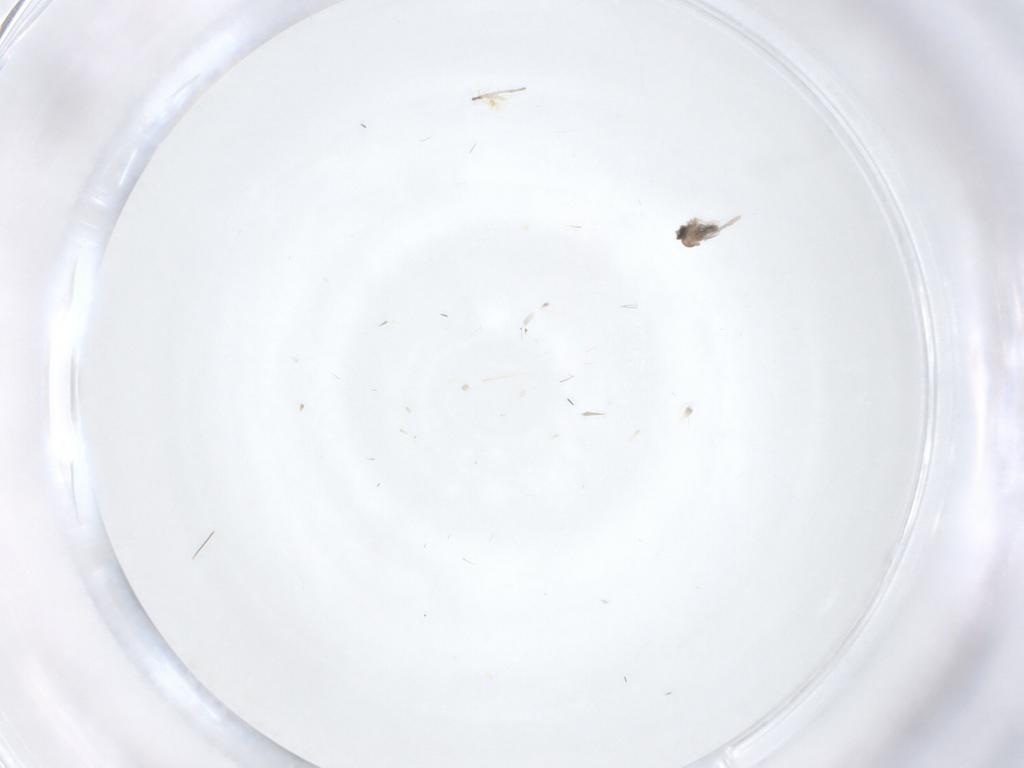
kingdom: Animalia
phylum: Arthropoda
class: Insecta
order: Diptera
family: Psychodidae
